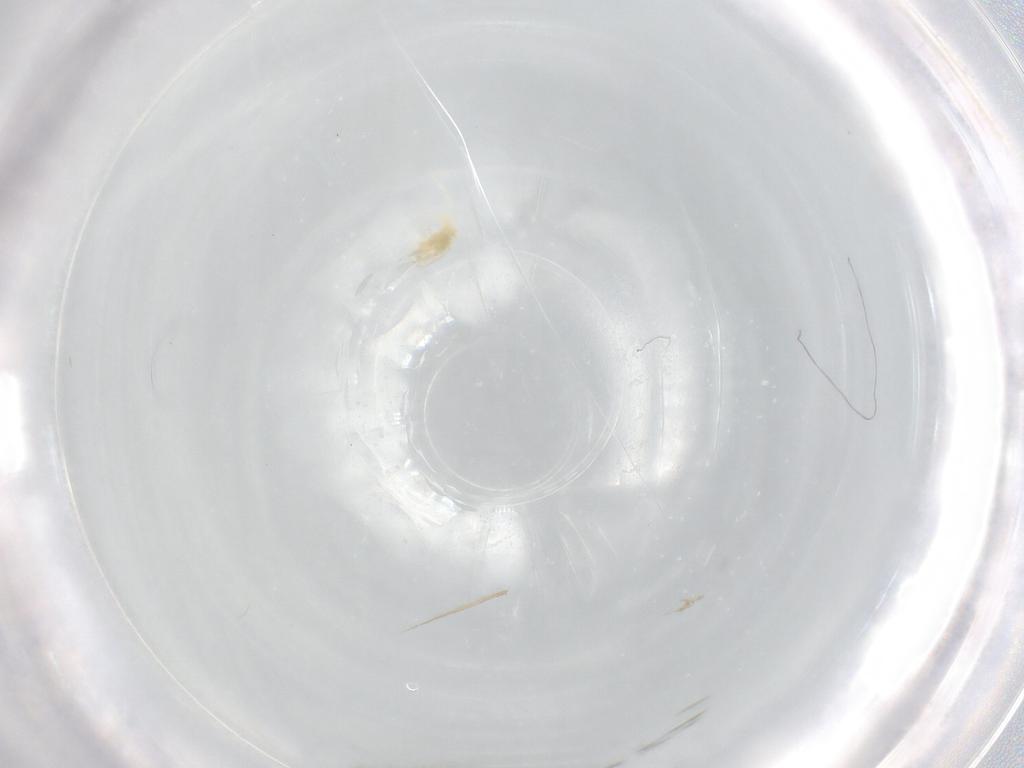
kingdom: Animalia
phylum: Arthropoda
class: Arachnida
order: Trombidiformes
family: Eupodidae
